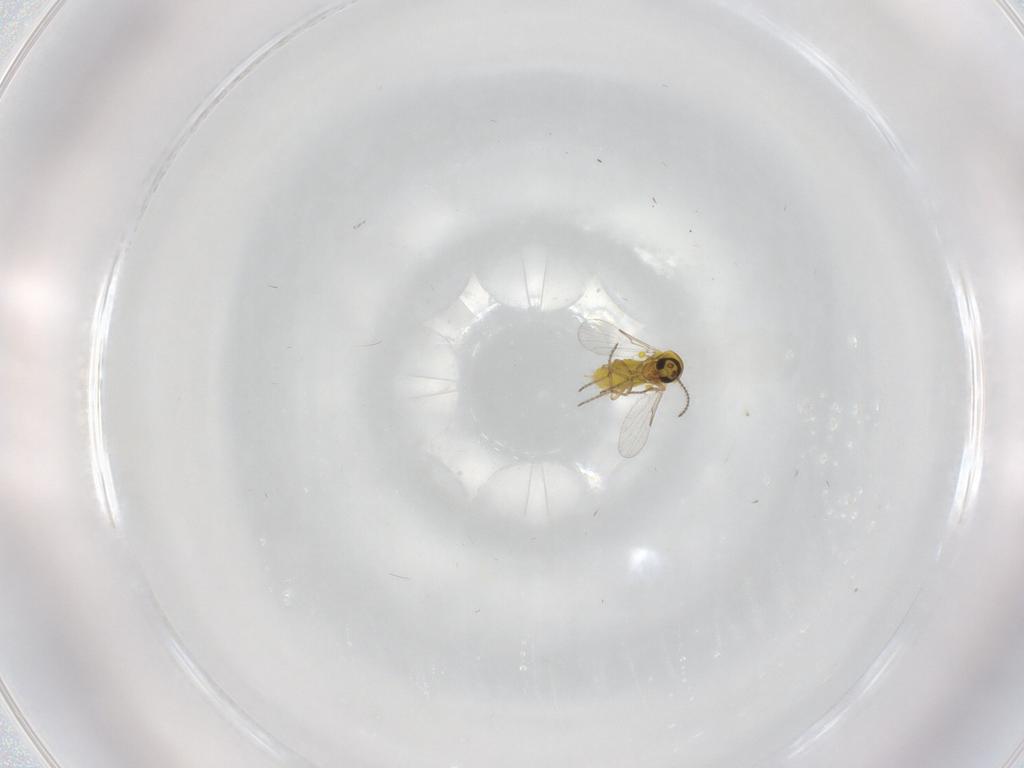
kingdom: Animalia
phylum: Arthropoda
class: Insecta
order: Diptera
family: Ceratopogonidae
